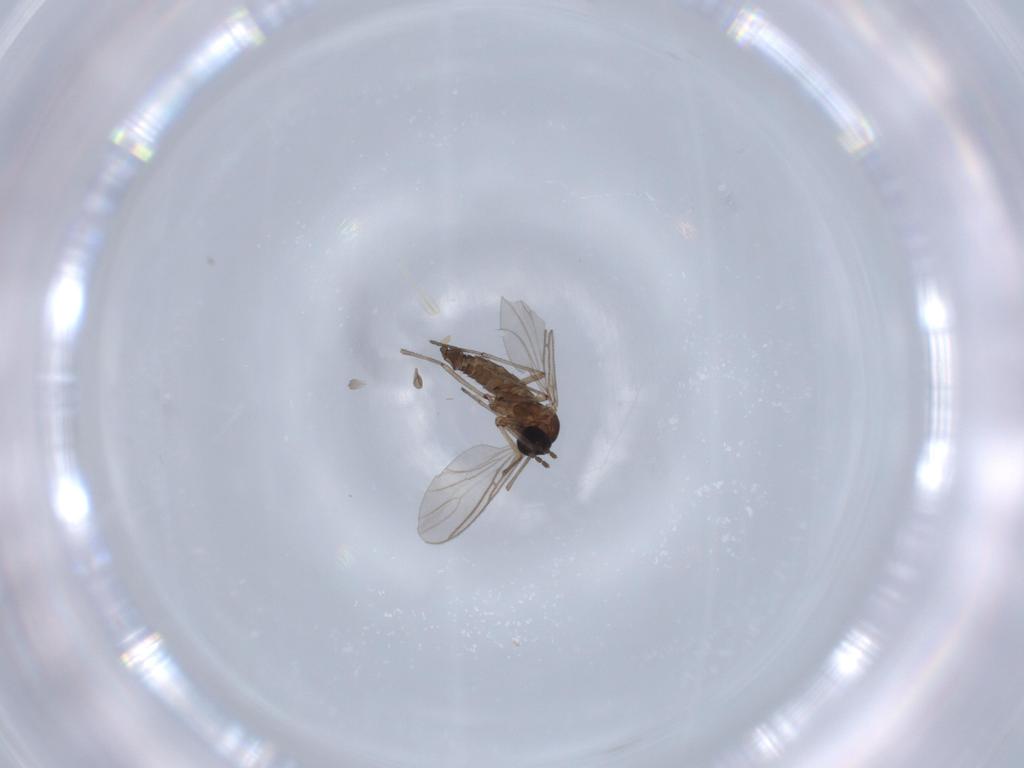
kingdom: Animalia
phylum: Arthropoda
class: Insecta
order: Diptera
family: Sciaridae
